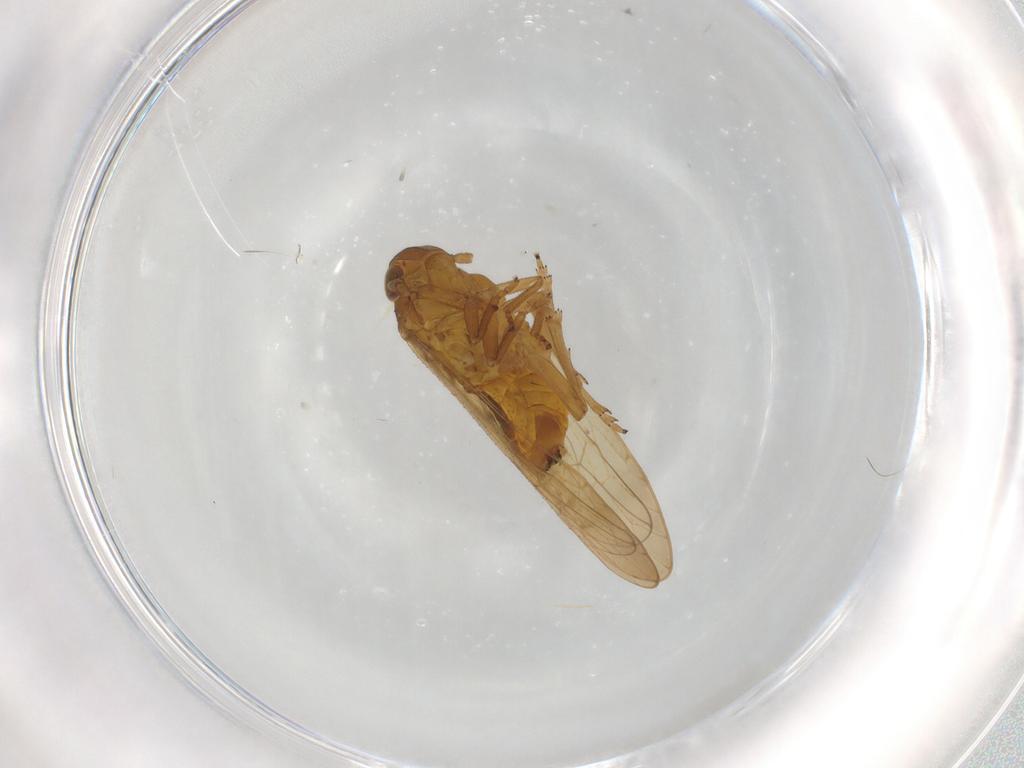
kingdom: Animalia
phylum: Arthropoda
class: Insecta
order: Hemiptera
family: Delphacidae
